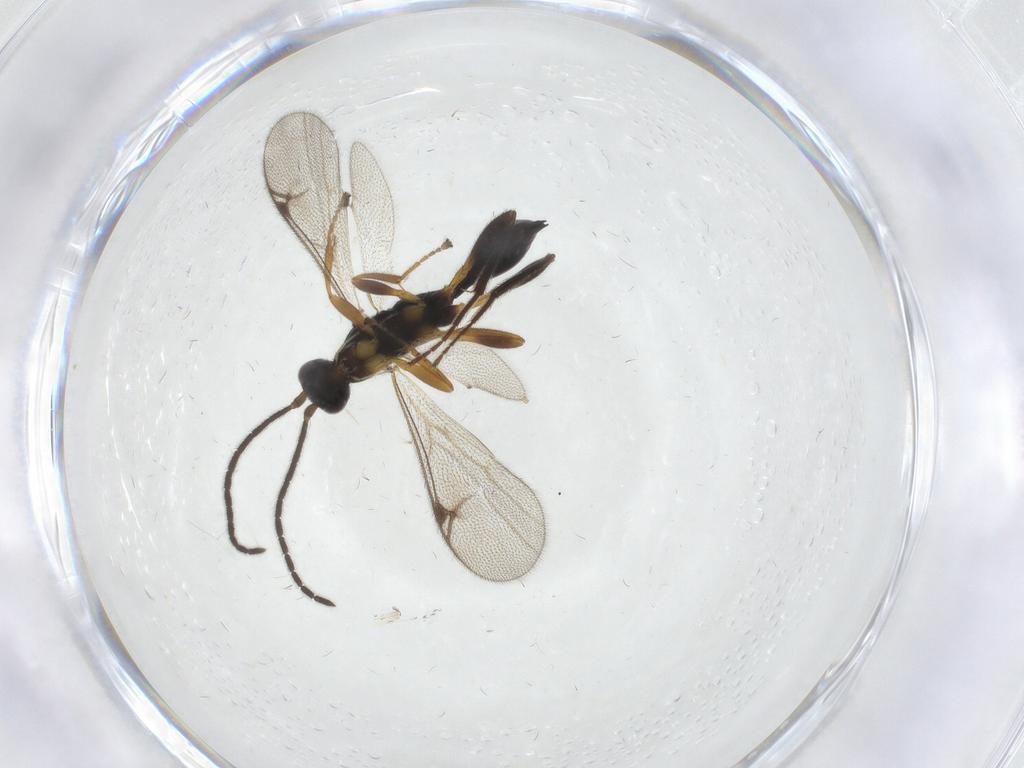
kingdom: Animalia
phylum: Arthropoda
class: Insecta
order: Hymenoptera
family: Proctotrupidae
